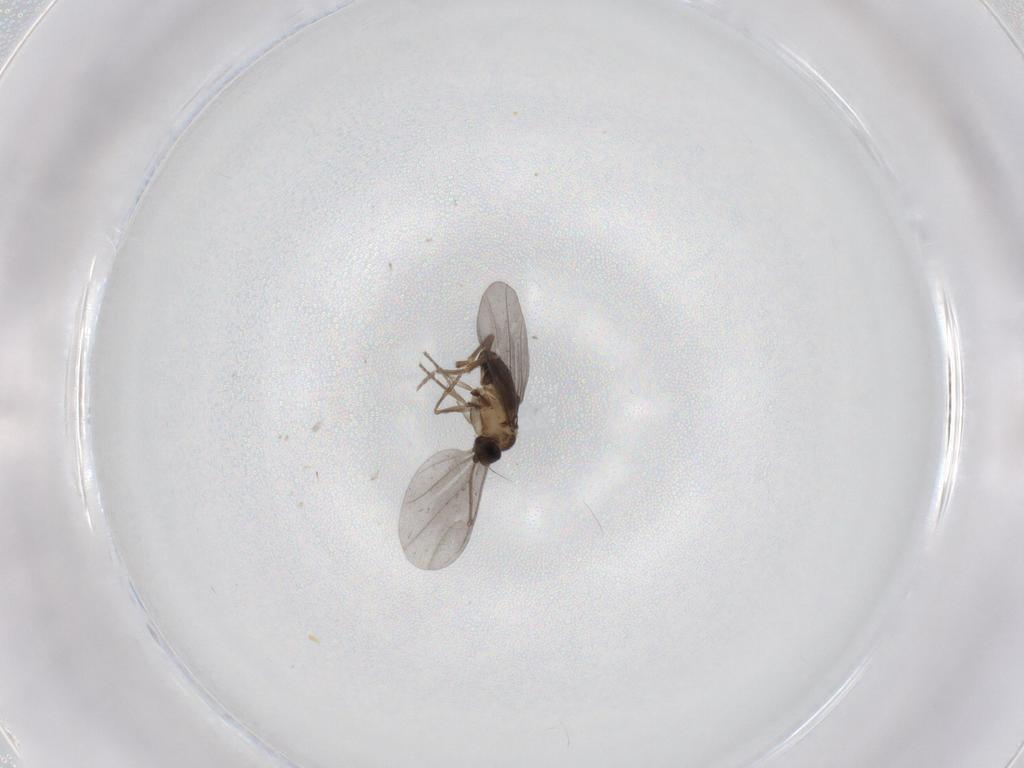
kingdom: Animalia
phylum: Arthropoda
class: Insecta
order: Diptera
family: Phoridae
